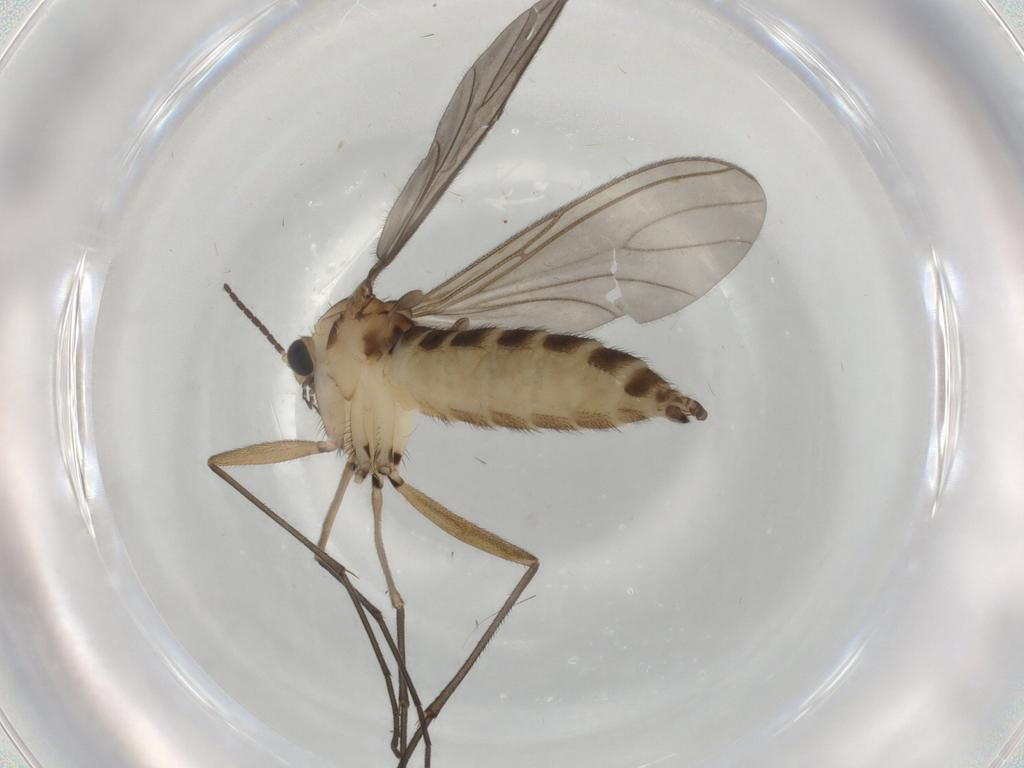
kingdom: Animalia
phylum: Arthropoda
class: Insecta
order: Diptera
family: Sciaridae
